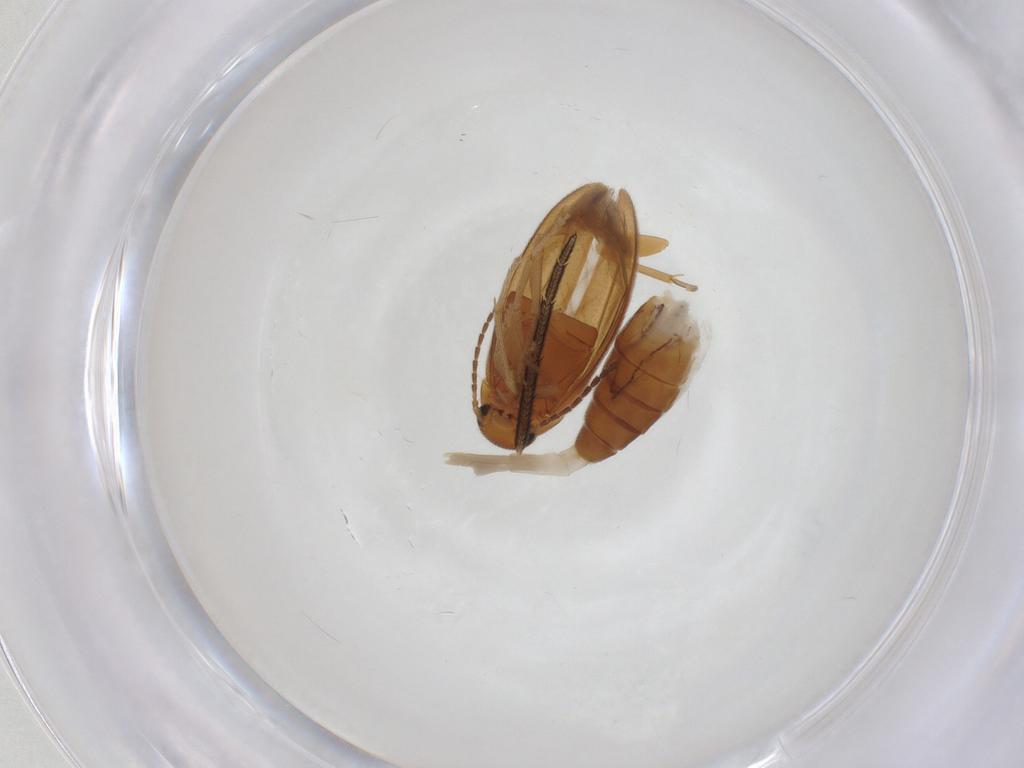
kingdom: Animalia
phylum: Arthropoda
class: Insecta
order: Coleoptera
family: Scraptiidae
